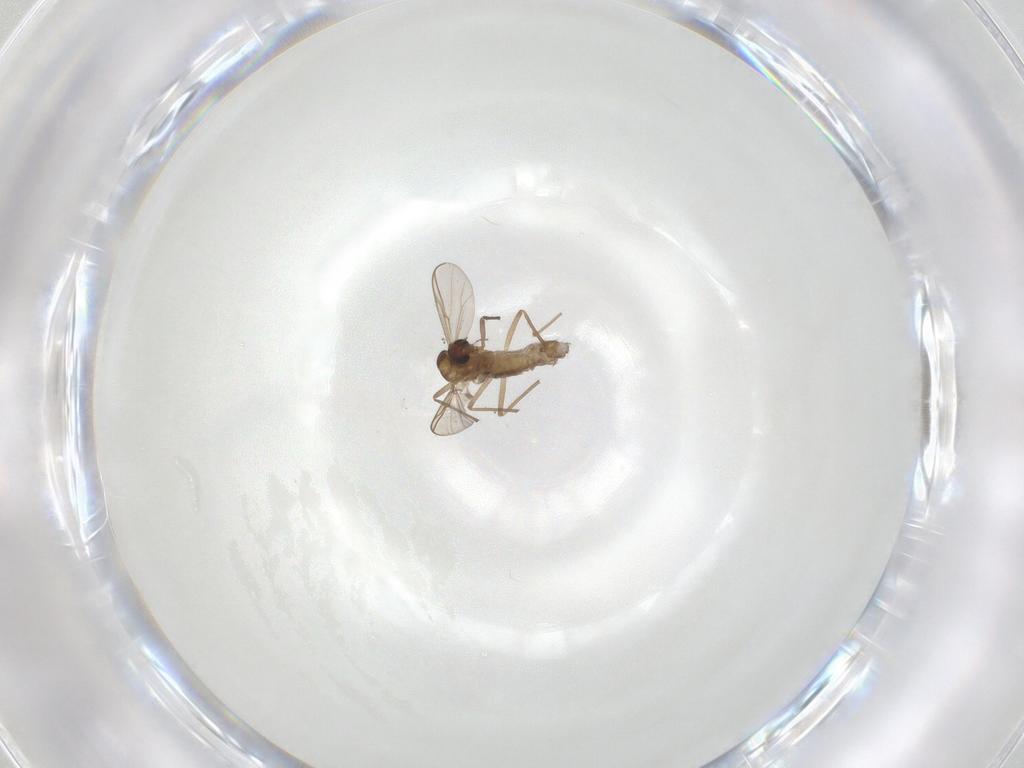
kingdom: Animalia
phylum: Arthropoda
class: Insecta
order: Diptera
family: Chironomidae
